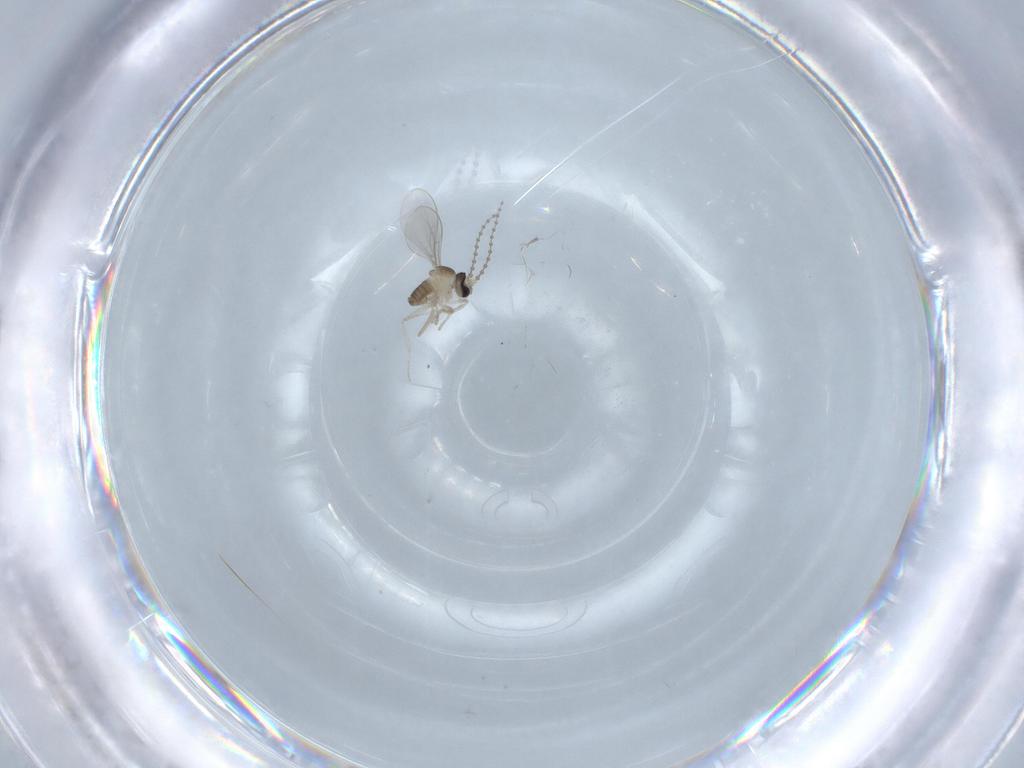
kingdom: Animalia
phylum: Arthropoda
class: Insecta
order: Diptera
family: Cecidomyiidae
